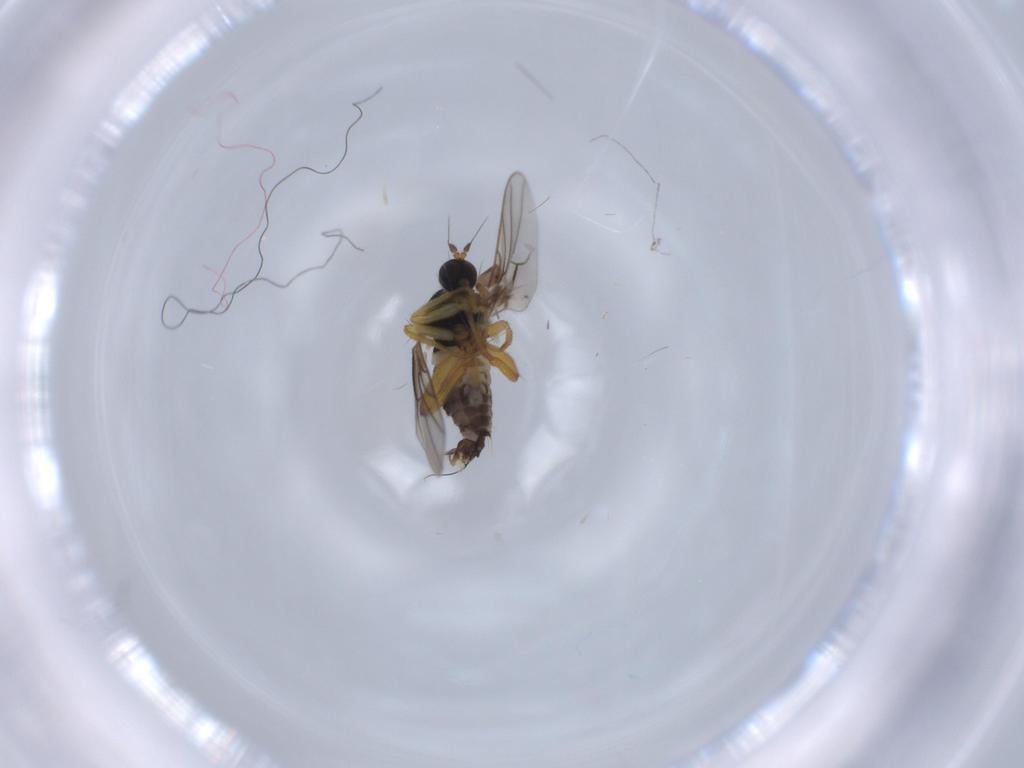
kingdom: Animalia
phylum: Arthropoda
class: Insecta
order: Diptera
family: Hybotidae
